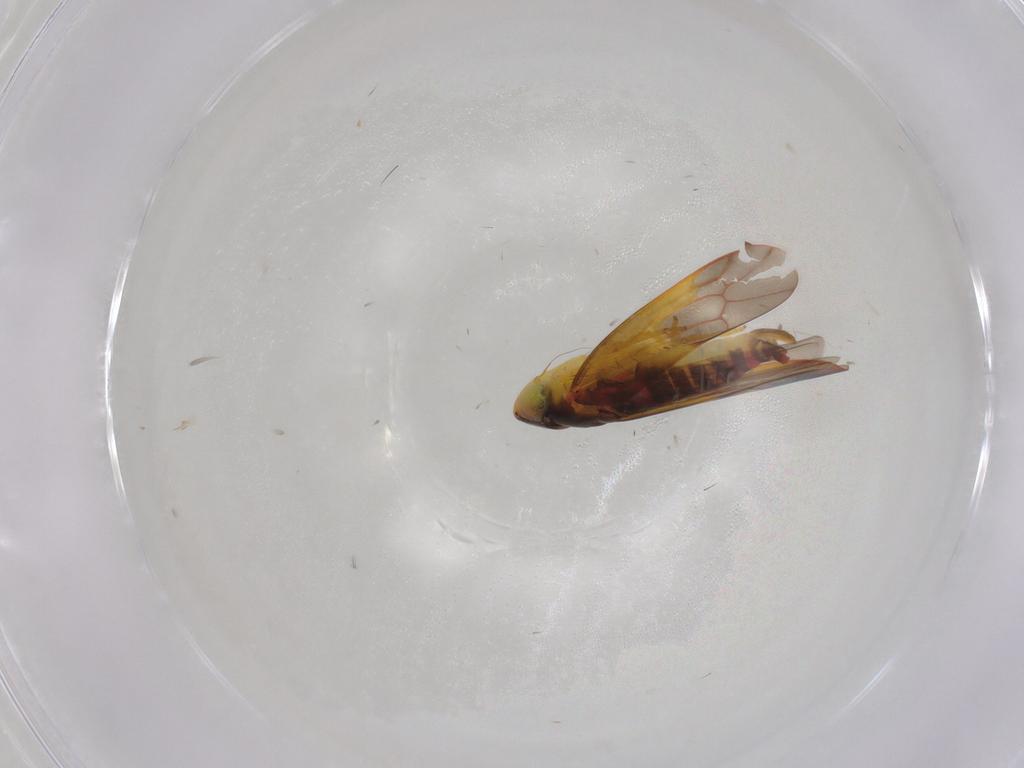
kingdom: Animalia
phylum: Arthropoda
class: Insecta
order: Hemiptera
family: Cicadellidae
